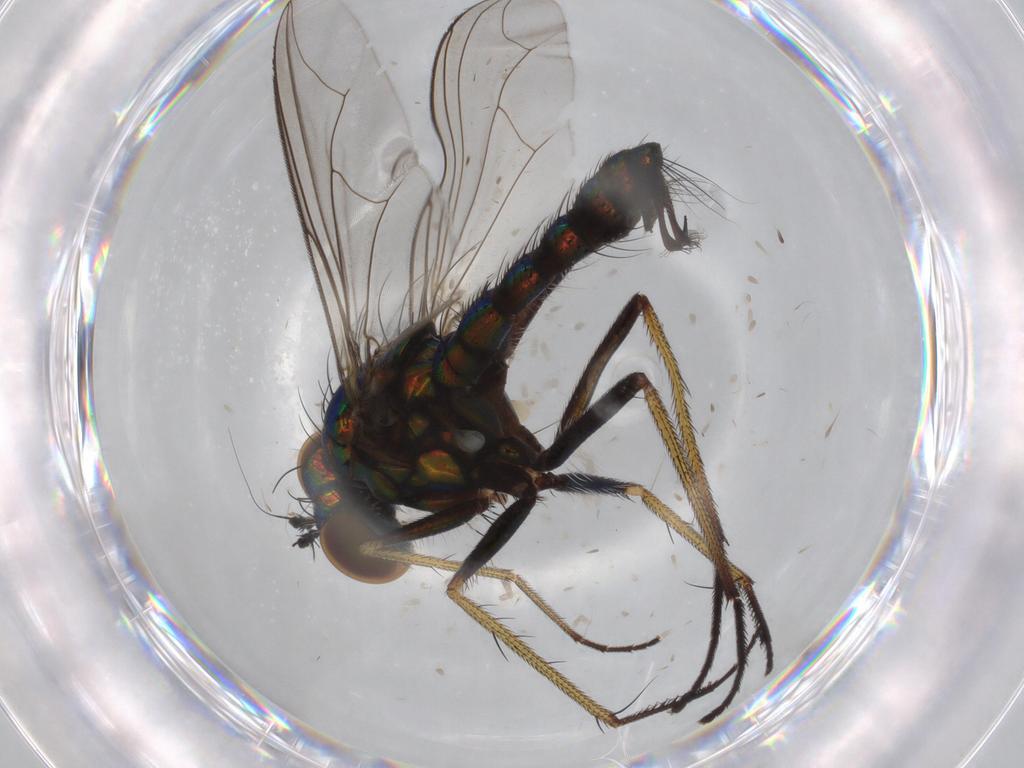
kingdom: Animalia
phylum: Arthropoda
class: Insecta
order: Diptera
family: Dolichopodidae
